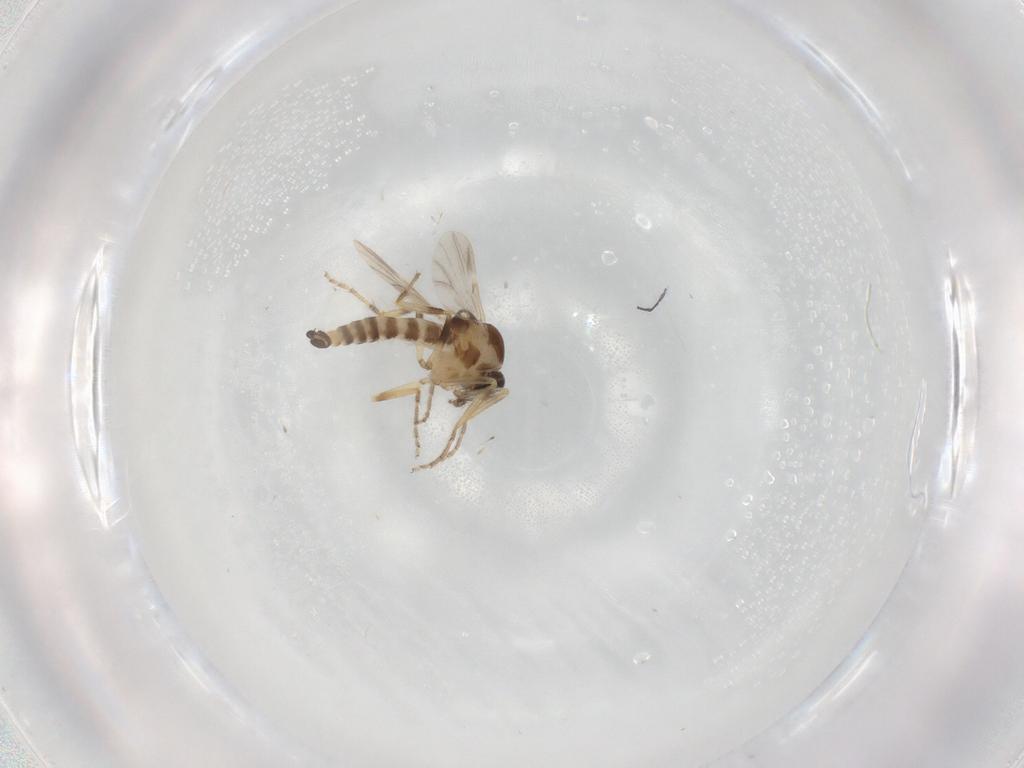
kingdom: Animalia
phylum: Arthropoda
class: Insecta
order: Diptera
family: Ceratopogonidae
